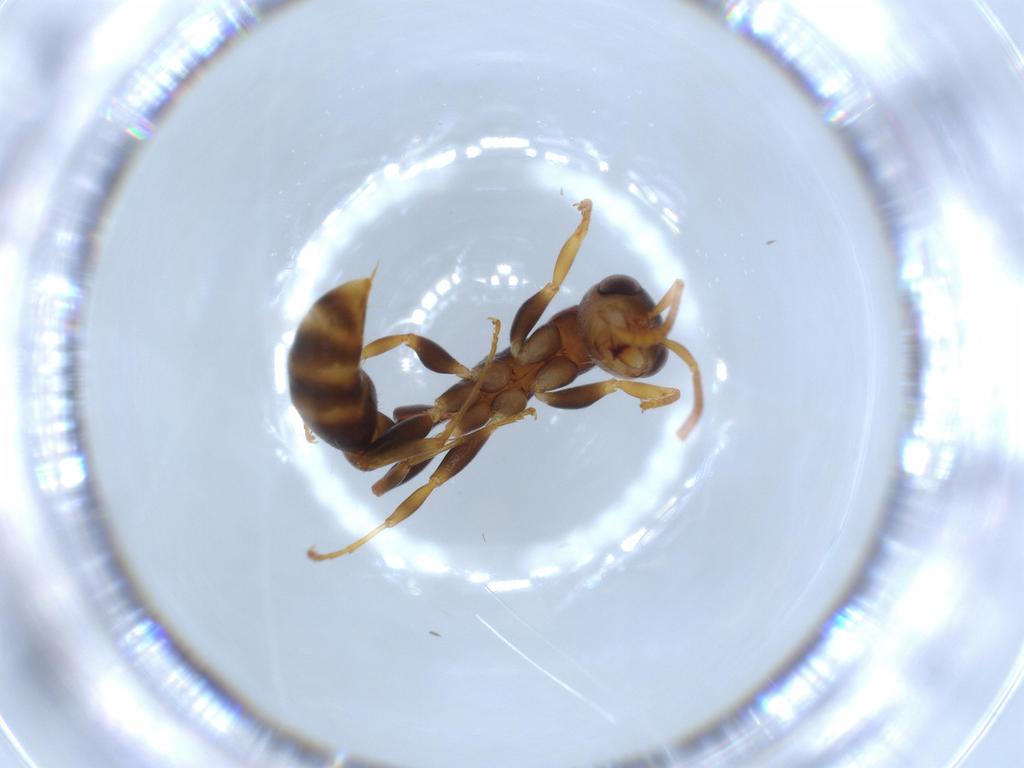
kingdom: Animalia
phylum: Arthropoda
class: Insecta
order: Hymenoptera
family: Formicidae
